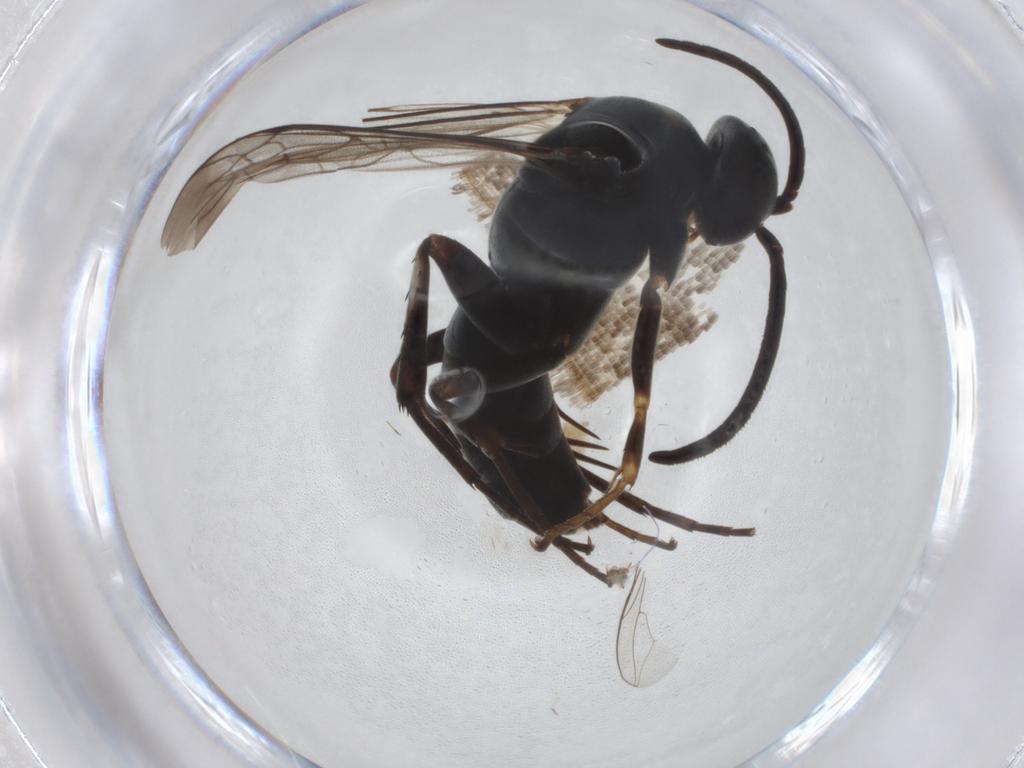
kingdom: Animalia
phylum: Arthropoda
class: Insecta
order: Hymenoptera
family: Pompilidae
